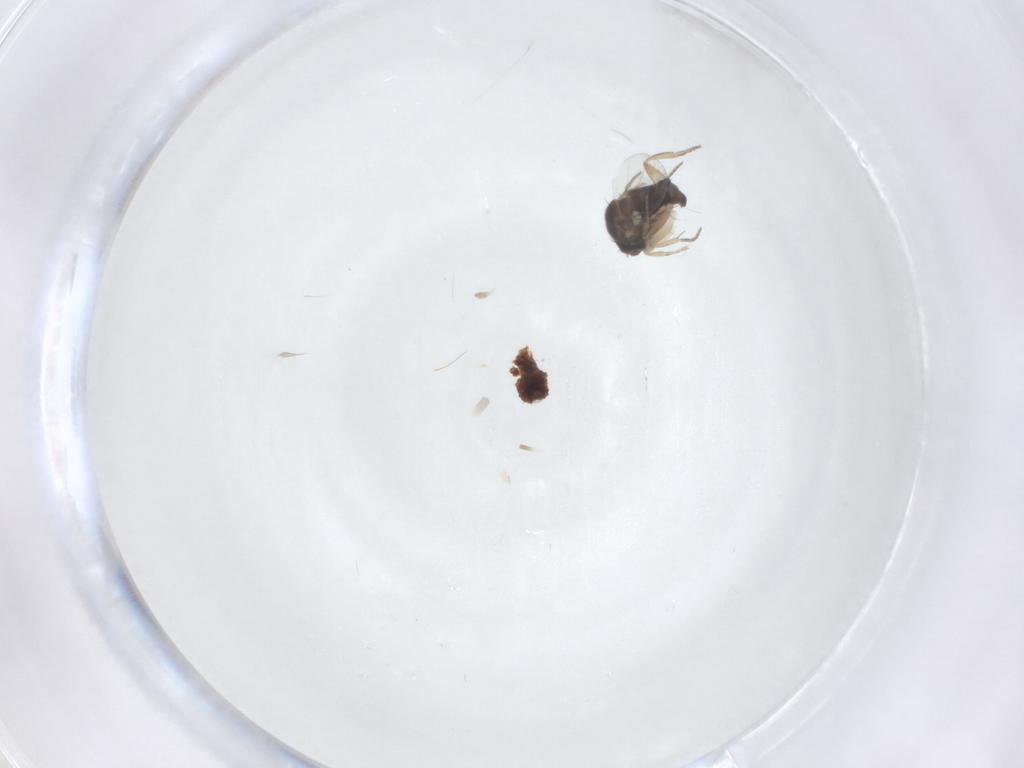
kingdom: Animalia
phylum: Arthropoda
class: Insecta
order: Diptera
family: Phoridae
